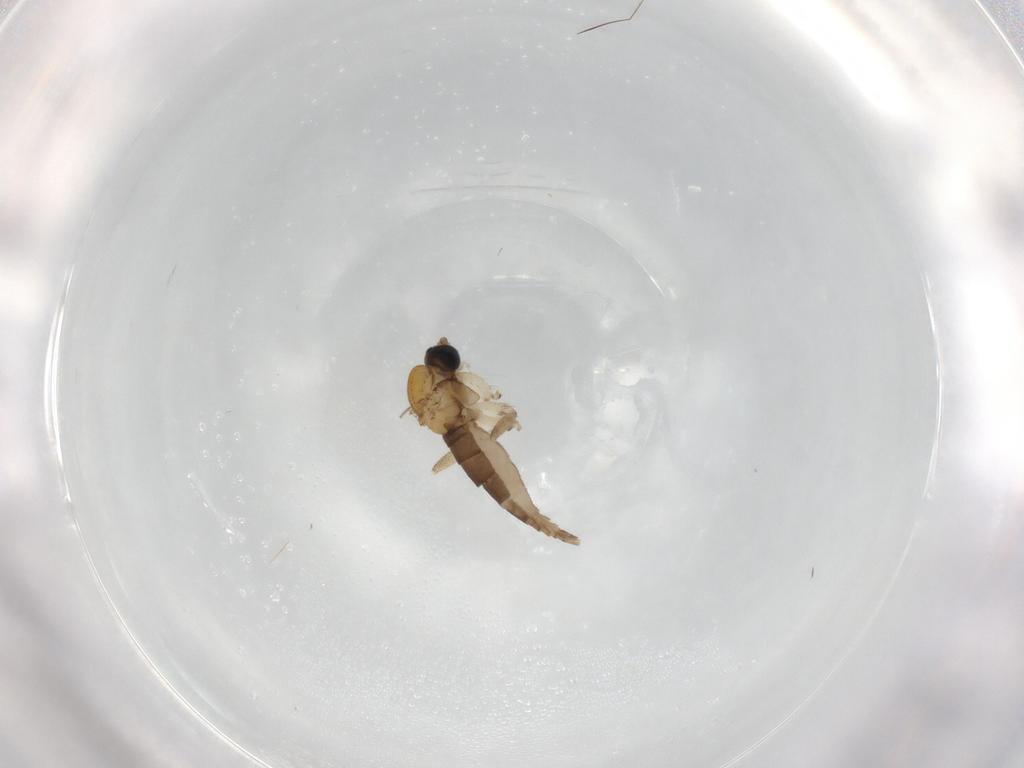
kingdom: Animalia
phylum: Arthropoda
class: Insecta
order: Diptera
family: Sciaridae
